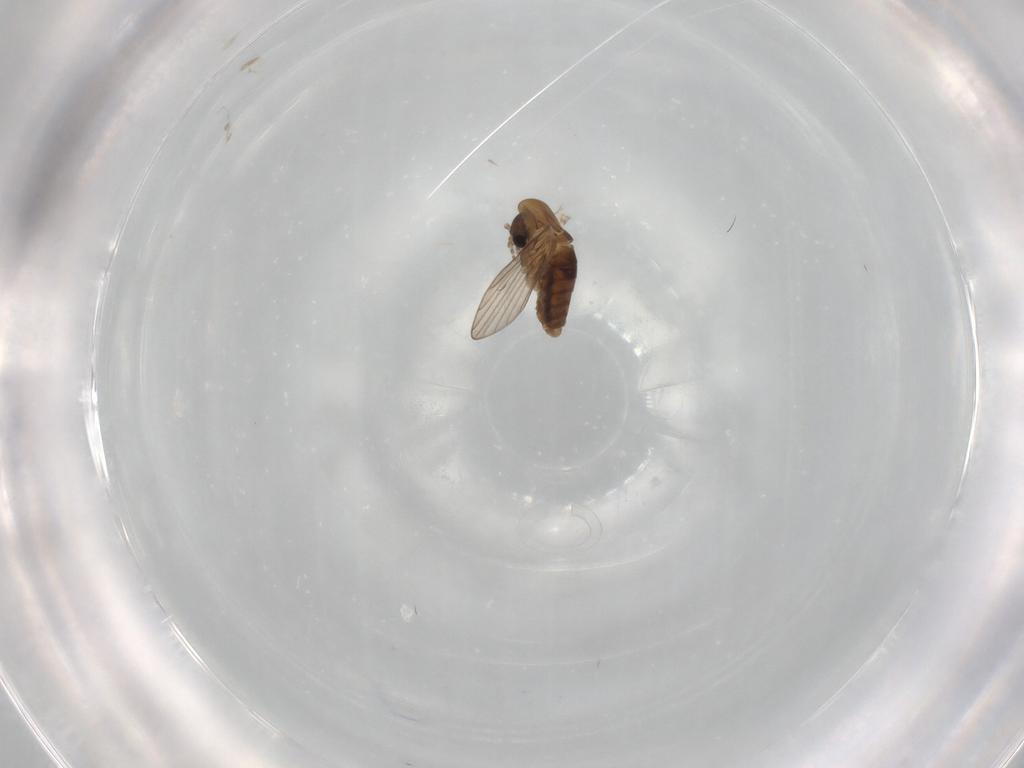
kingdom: Animalia
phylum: Arthropoda
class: Insecta
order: Diptera
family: Psychodidae
